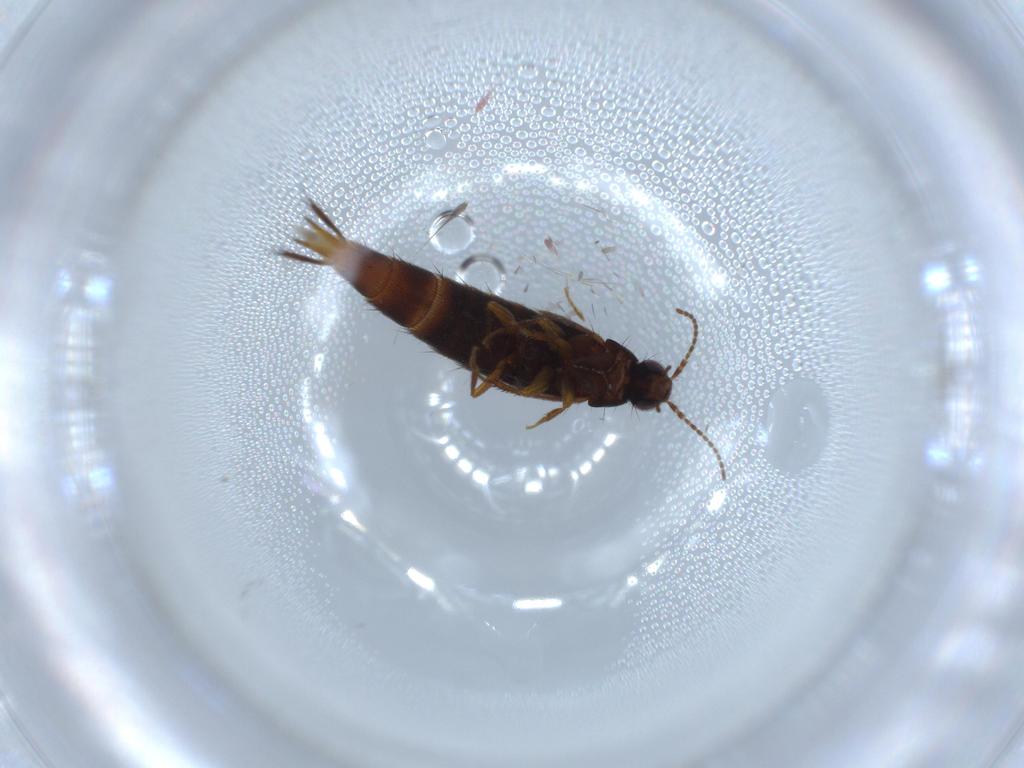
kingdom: Animalia
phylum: Arthropoda
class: Insecta
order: Coleoptera
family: Staphylinidae
